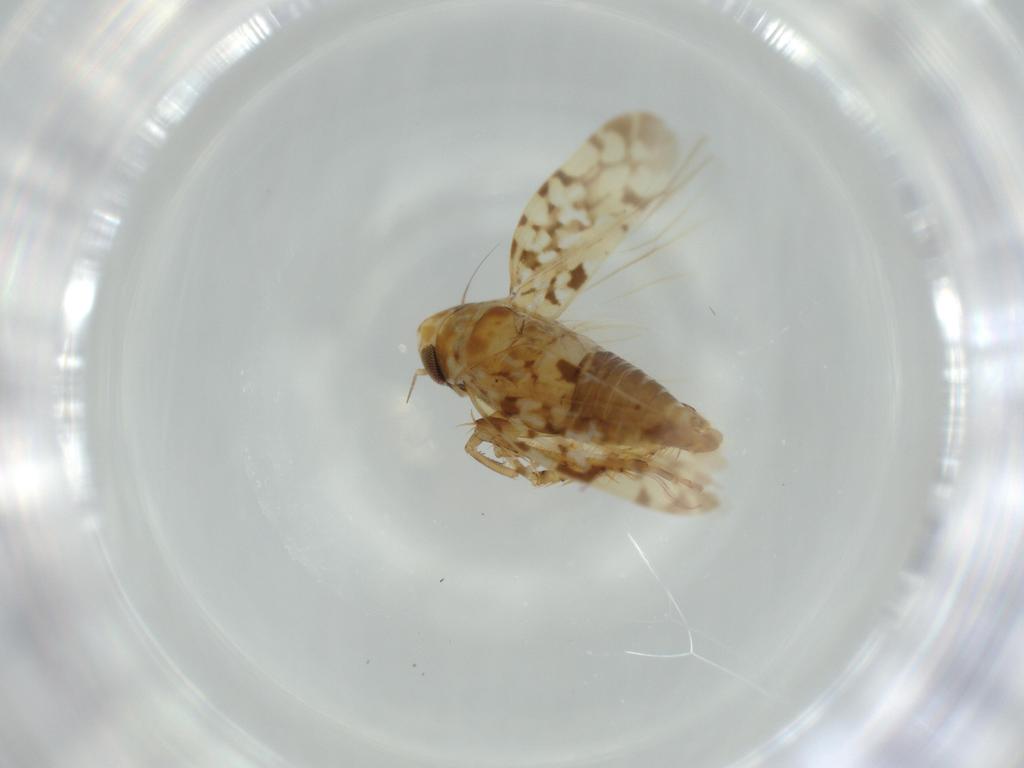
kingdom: Animalia
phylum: Arthropoda
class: Insecta
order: Hemiptera
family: Cicadellidae
